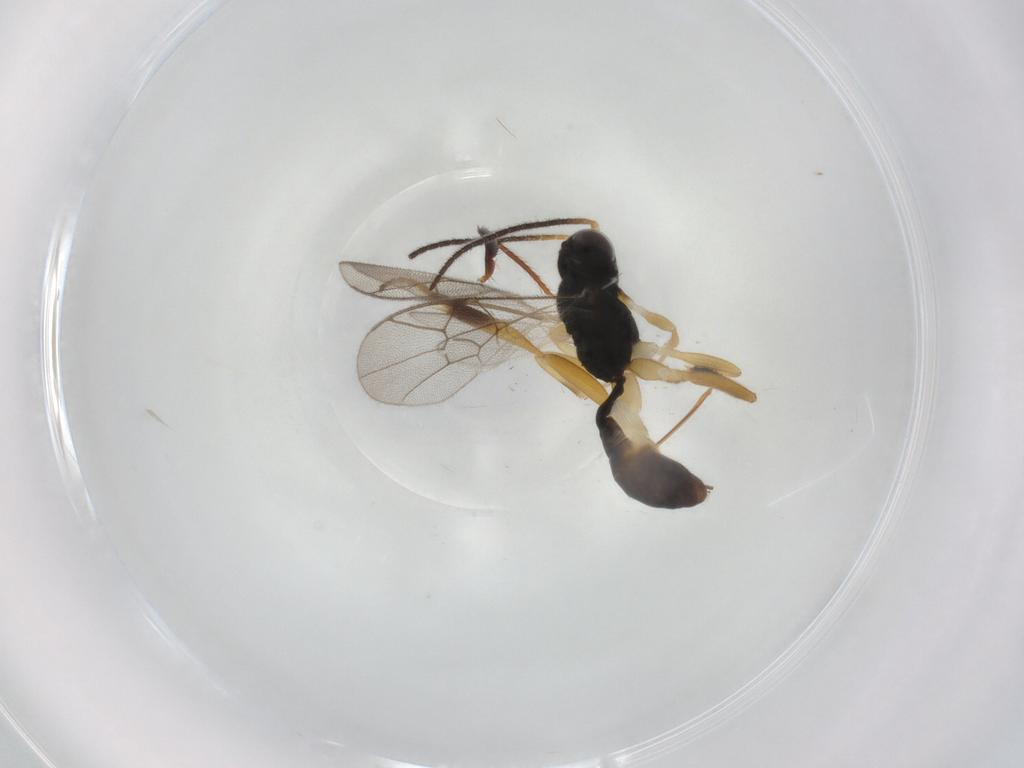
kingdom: Animalia
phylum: Arthropoda
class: Insecta
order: Hymenoptera
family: Ichneumonidae
